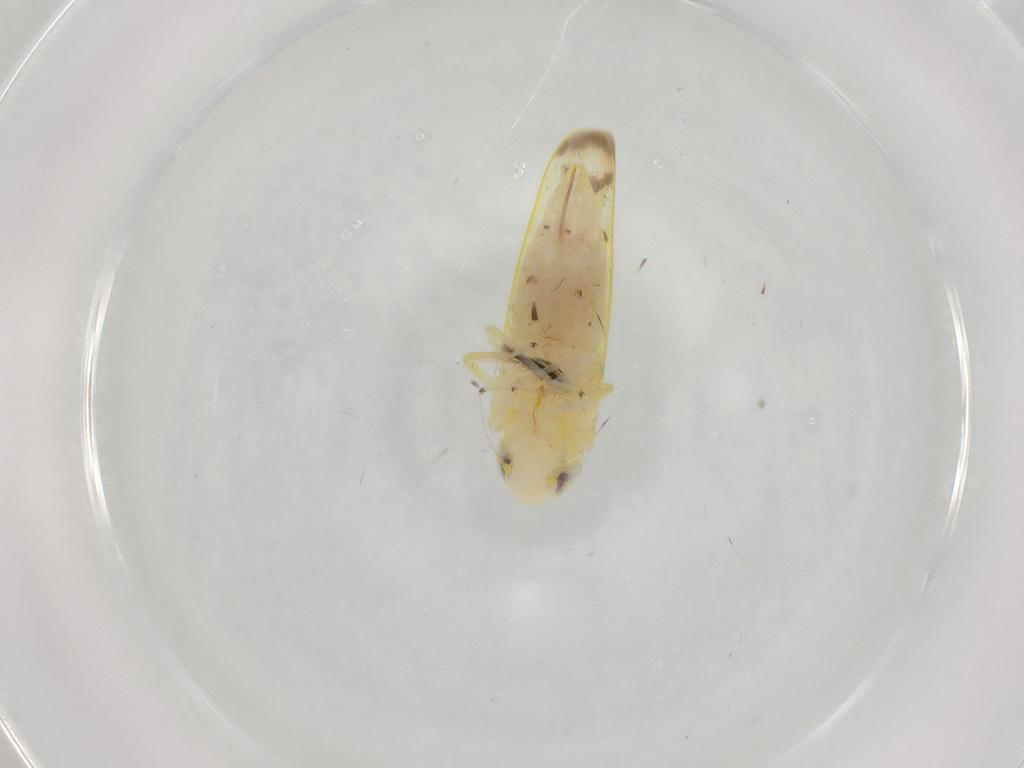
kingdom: Animalia
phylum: Arthropoda
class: Insecta
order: Hemiptera
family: Cicadellidae
